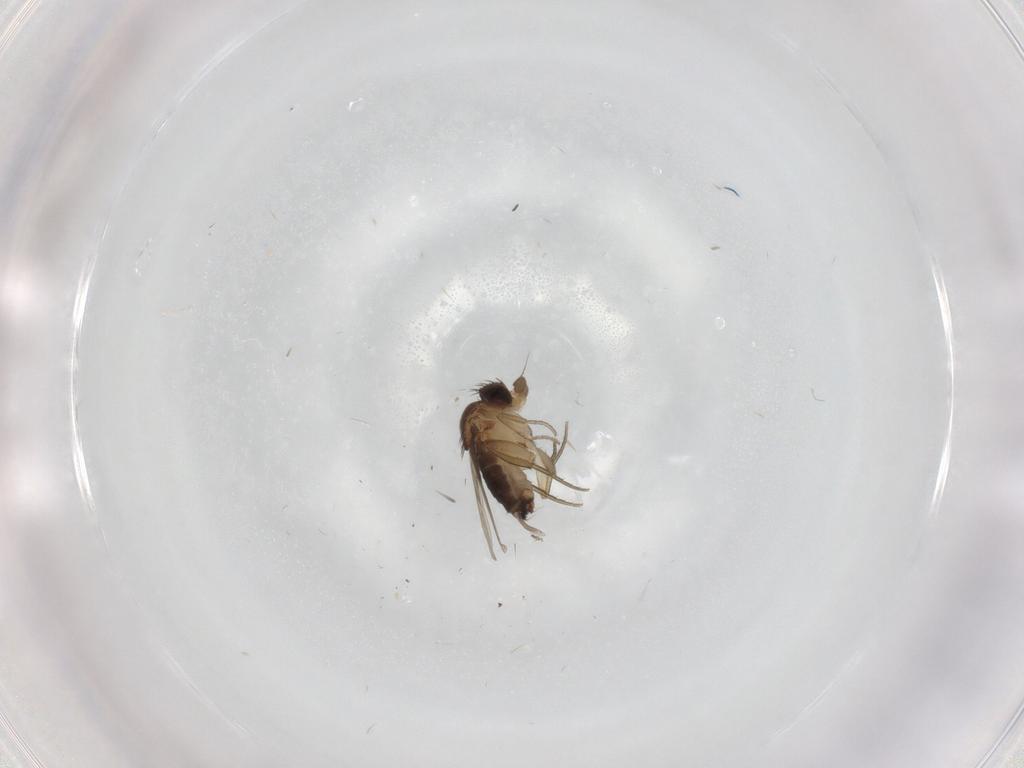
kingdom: Animalia
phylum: Arthropoda
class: Insecta
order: Diptera
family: Cecidomyiidae
